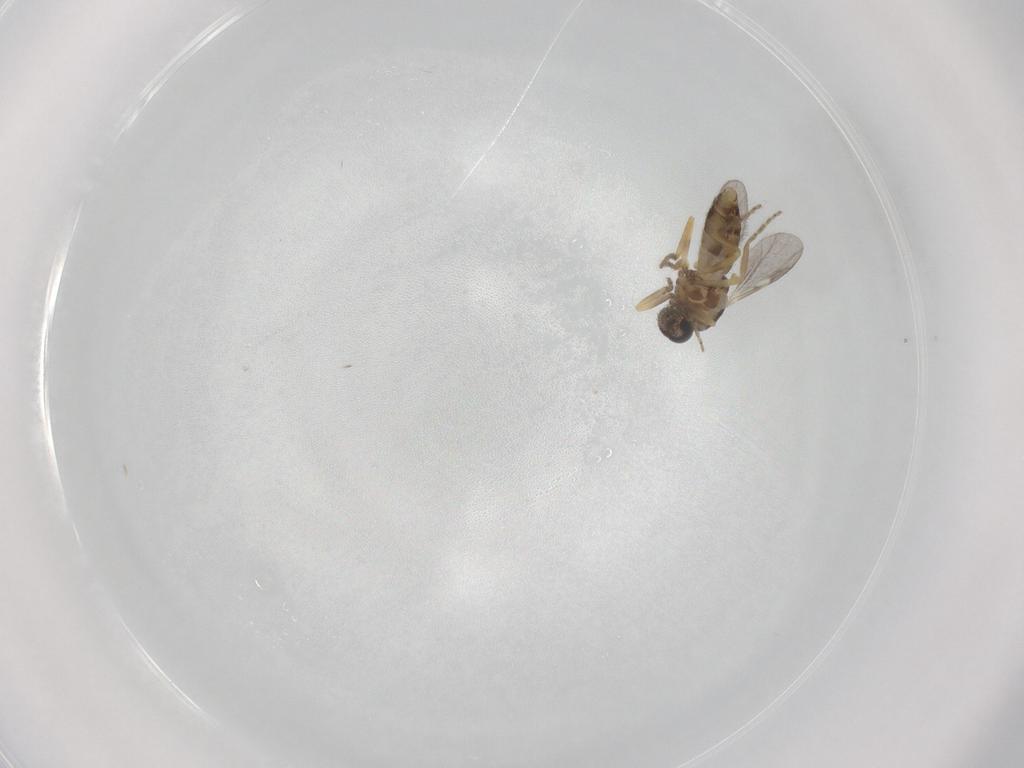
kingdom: Animalia
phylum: Arthropoda
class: Insecta
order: Diptera
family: Ceratopogonidae
